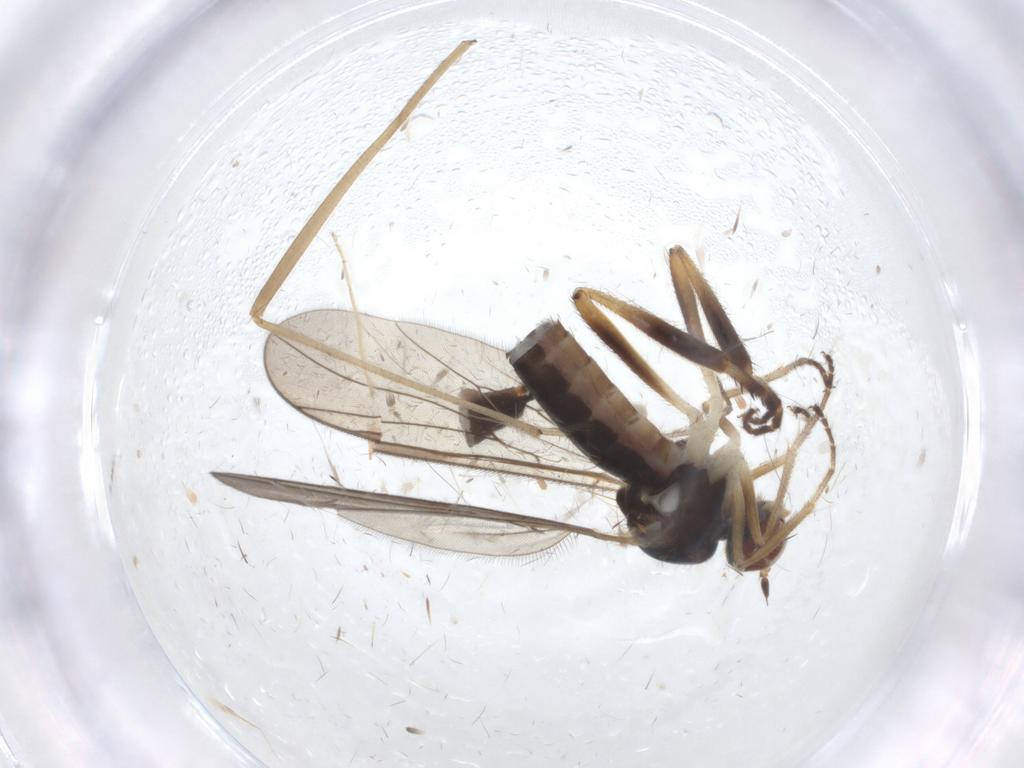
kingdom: Animalia
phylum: Arthropoda
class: Insecta
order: Diptera
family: Hybotidae
